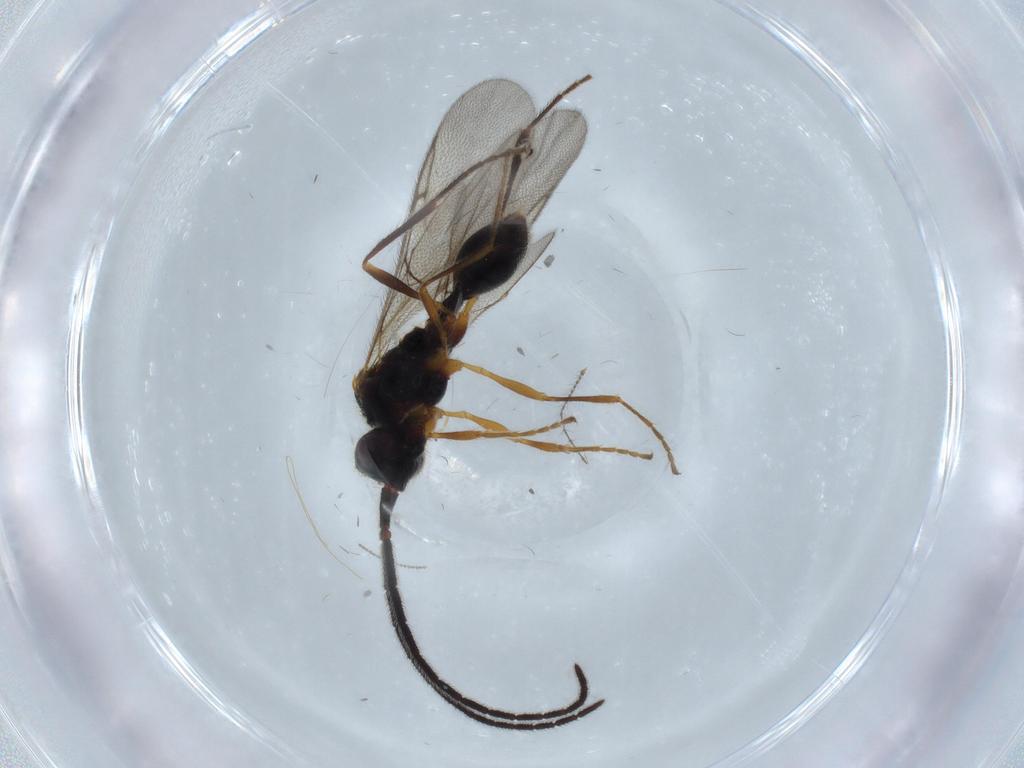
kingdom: Animalia
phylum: Arthropoda
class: Insecta
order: Hymenoptera
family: Diapriidae
